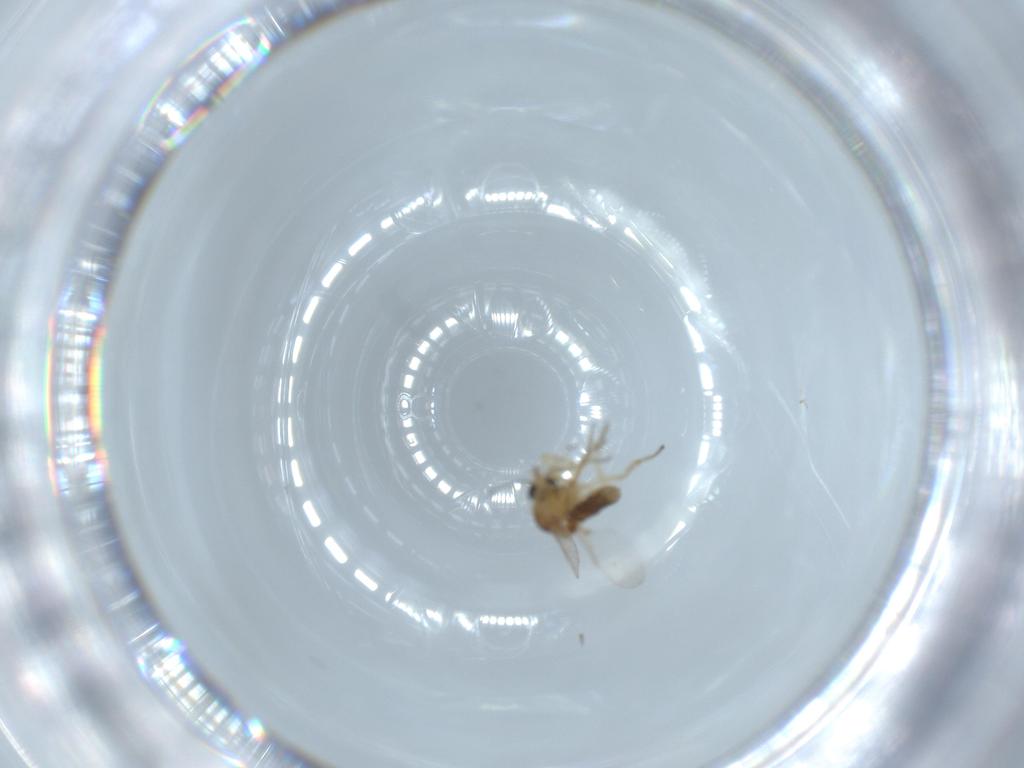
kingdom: Animalia
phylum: Arthropoda
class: Insecta
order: Diptera
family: Ceratopogonidae
